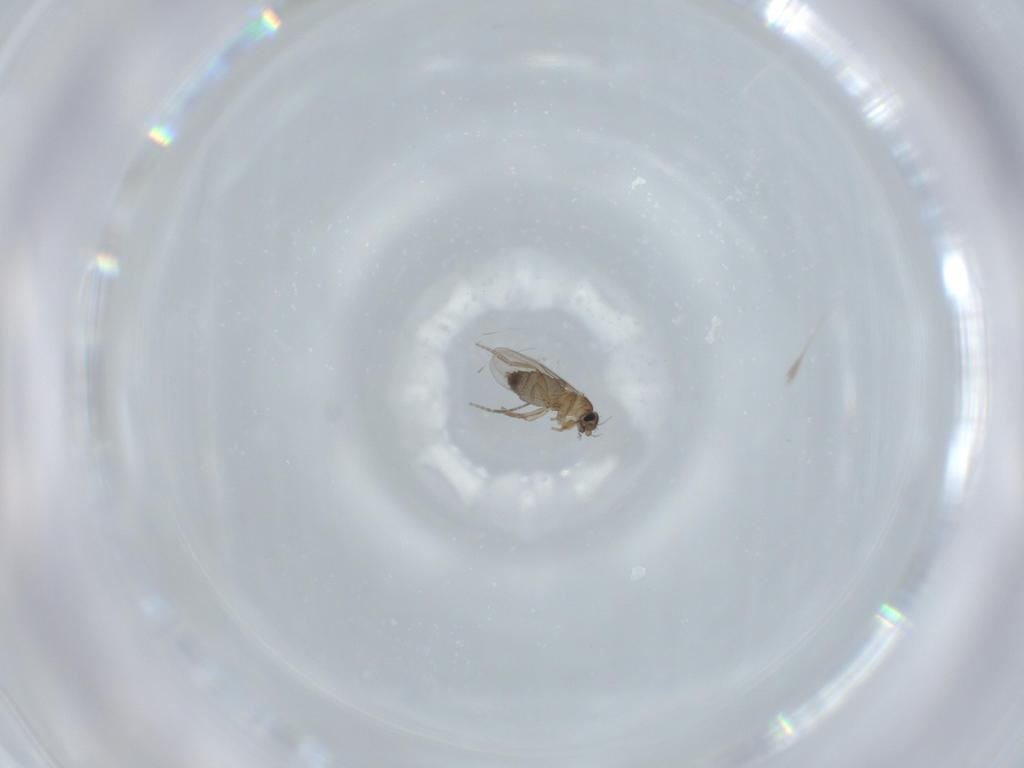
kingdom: Animalia
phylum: Arthropoda
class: Insecta
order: Diptera
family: Phoridae
